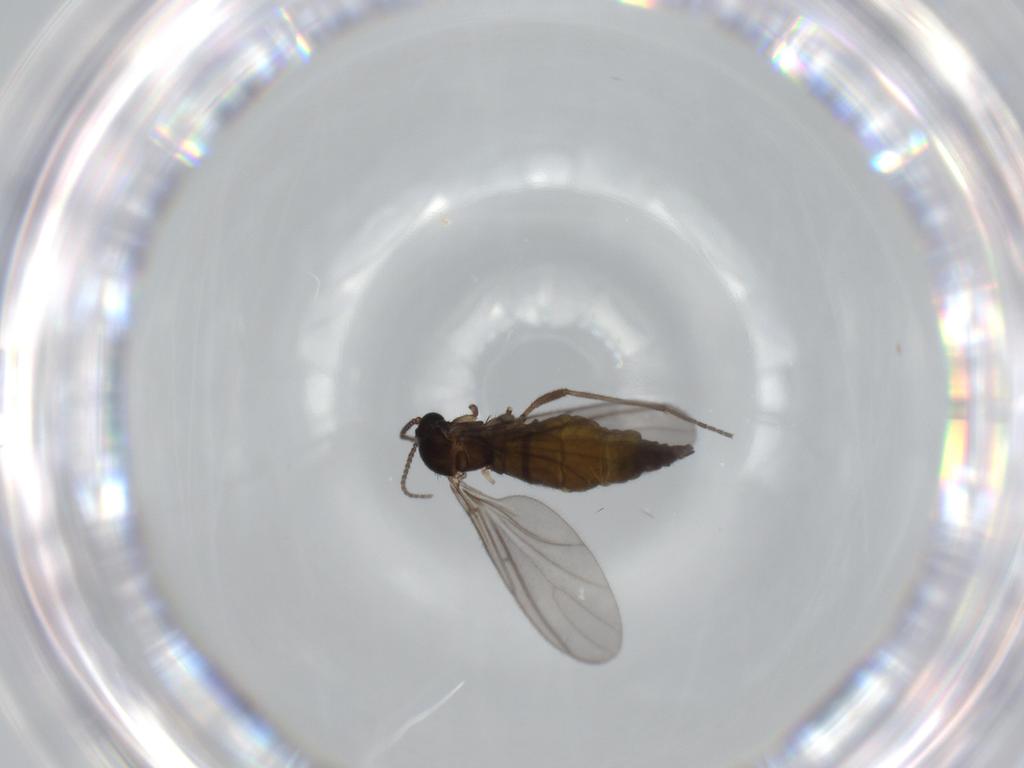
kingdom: Animalia
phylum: Arthropoda
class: Insecta
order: Diptera
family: Sciaridae
